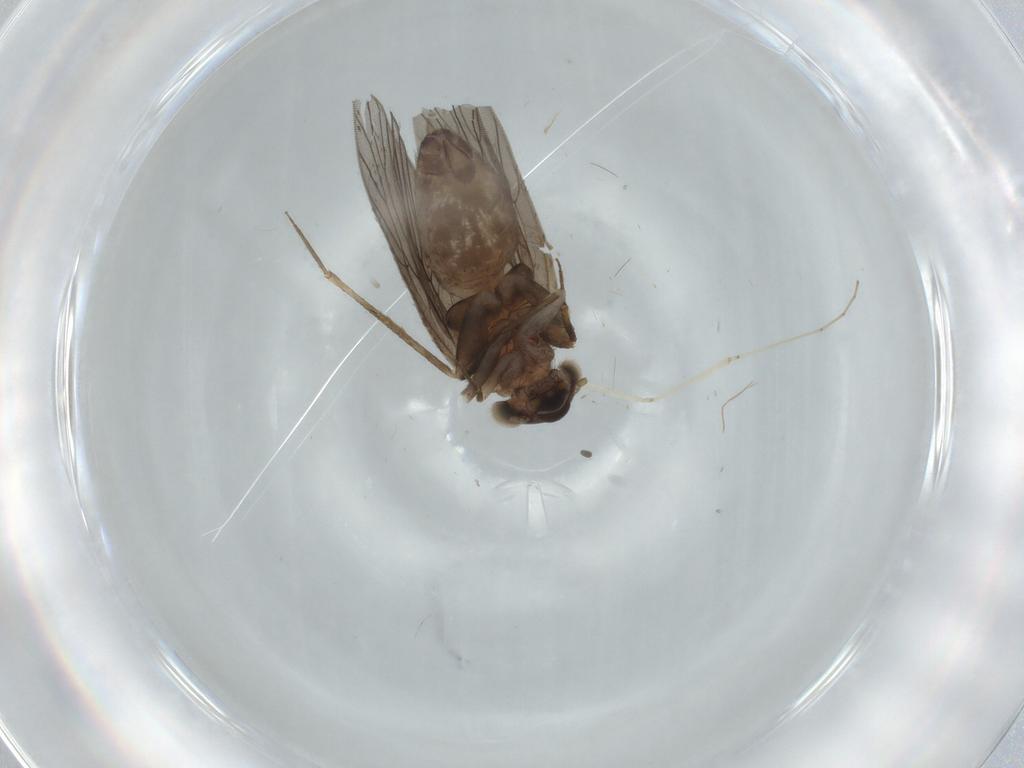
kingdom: Animalia
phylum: Arthropoda
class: Insecta
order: Psocodea
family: Lepidopsocidae
